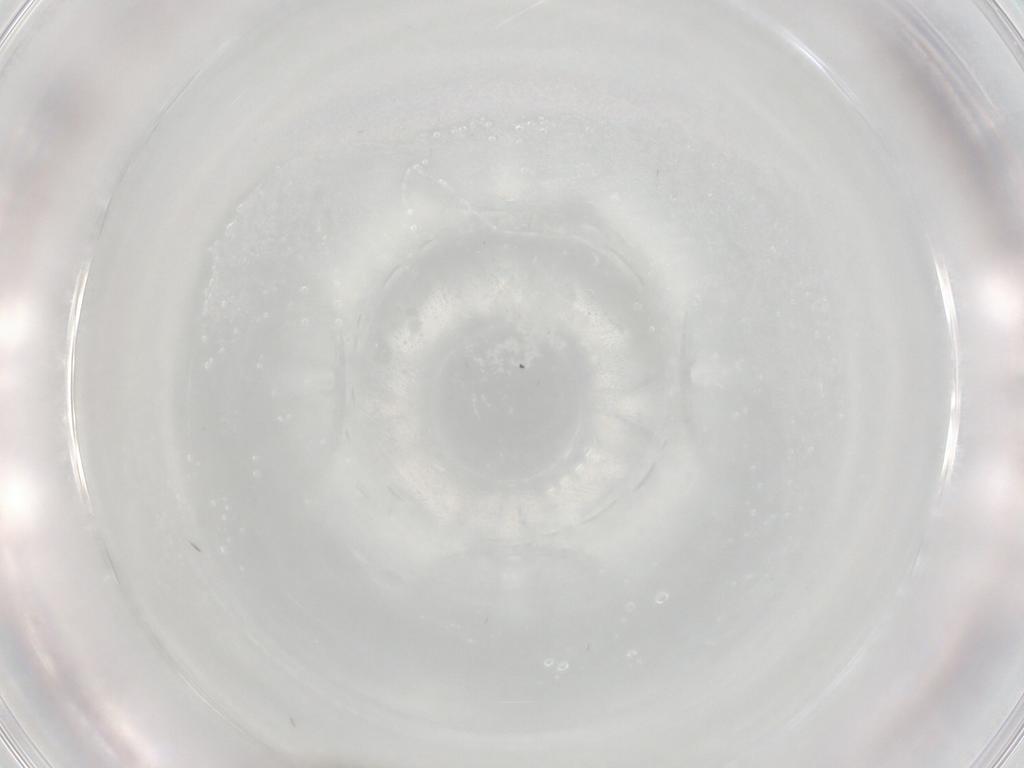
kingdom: Animalia
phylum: Arthropoda
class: Insecta
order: Diptera
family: Sciaridae
